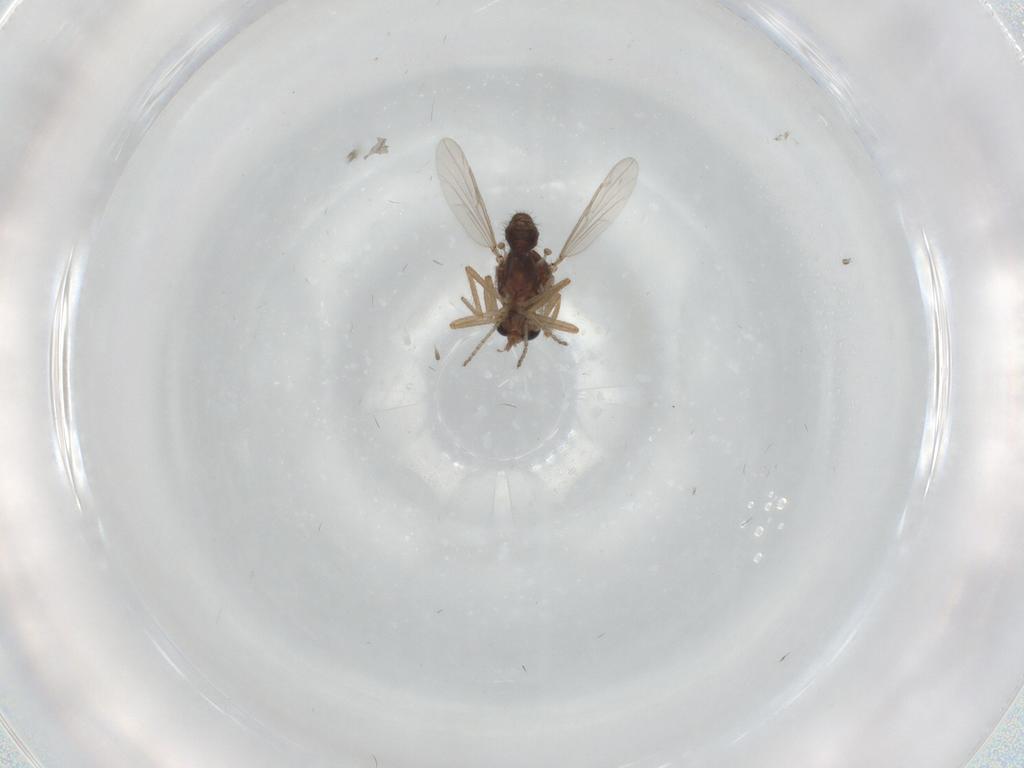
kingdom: Animalia
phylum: Arthropoda
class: Insecta
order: Diptera
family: Ceratopogonidae
